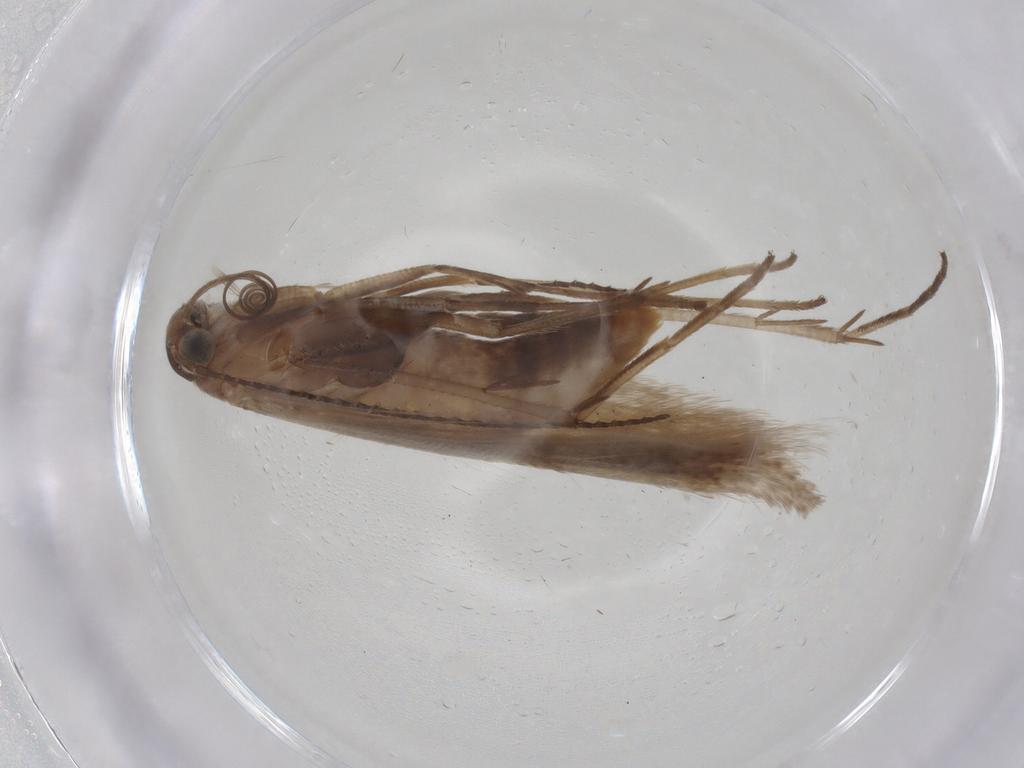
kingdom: Animalia
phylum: Arthropoda
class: Insecta
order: Lepidoptera
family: Gelechiidae
